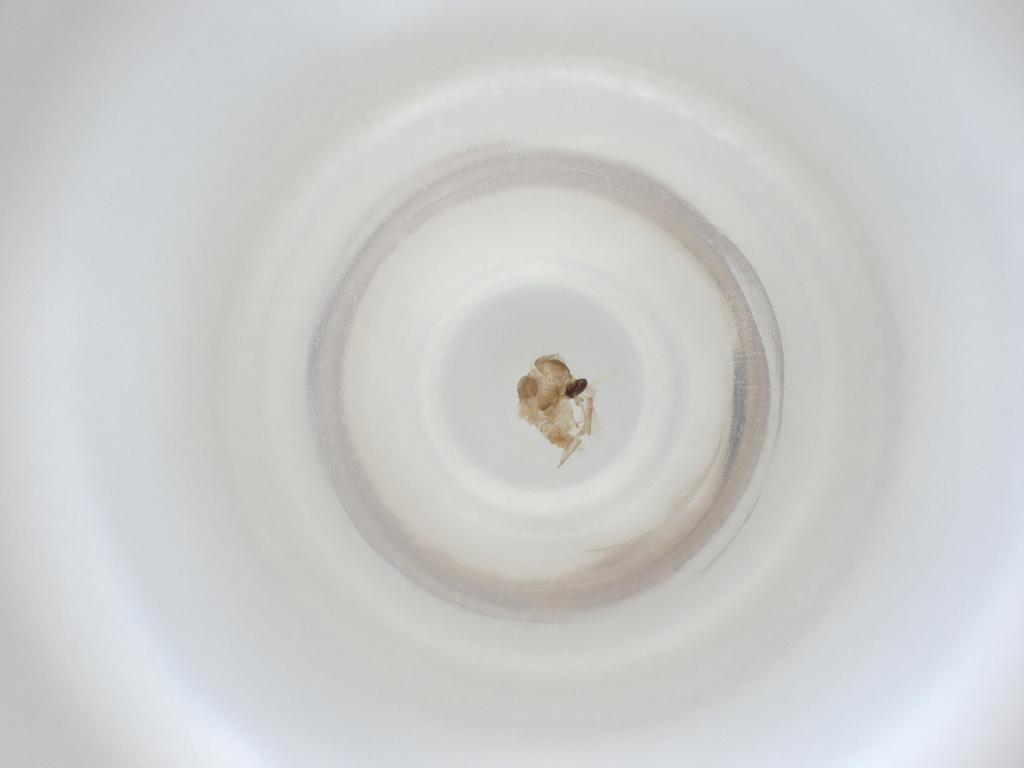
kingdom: Animalia
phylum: Arthropoda
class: Insecta
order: Diptera
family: Cecidomyiidae
